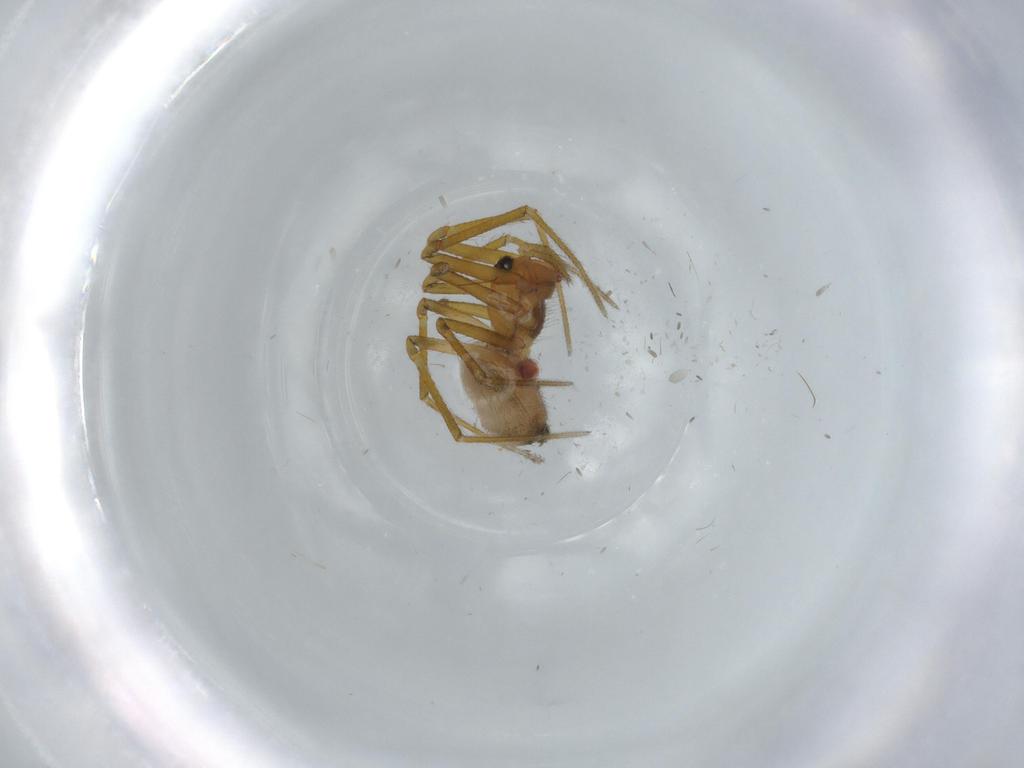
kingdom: Animalia
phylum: Arthropoda
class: Arachnida
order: Araneae
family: Linyphiidae
